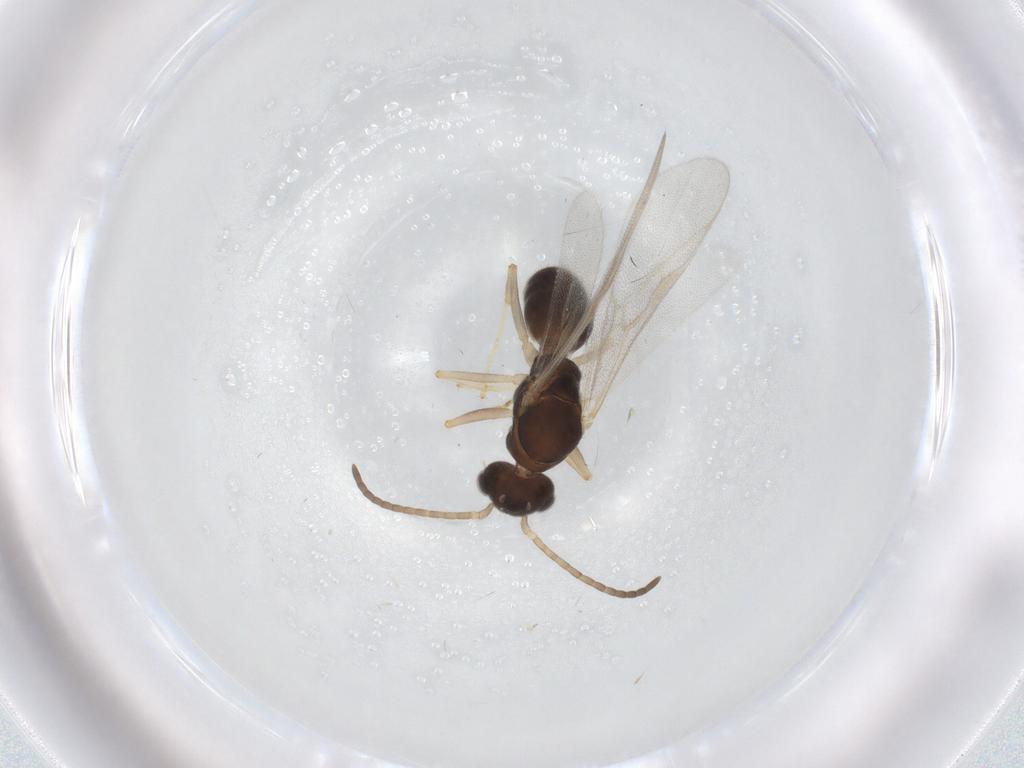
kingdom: Animalia
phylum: Arthropoda
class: Insecta
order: Hymenoptera
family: Formicidae
